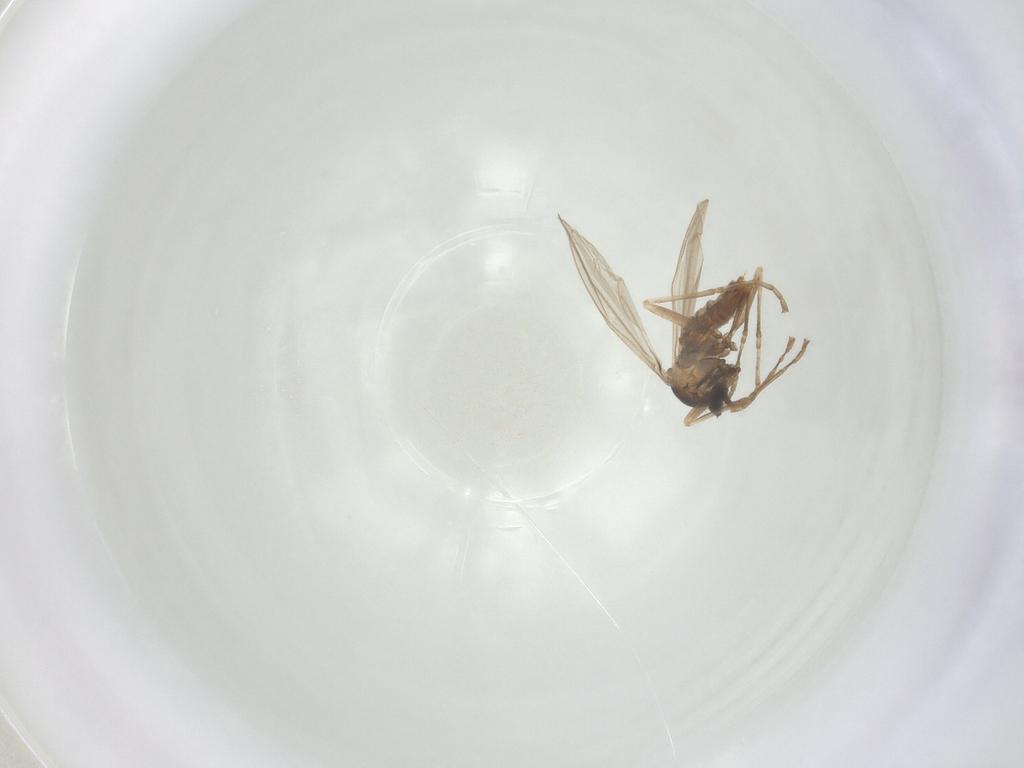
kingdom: Animalia
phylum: Arthropoda
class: Insecta
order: Diptera
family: Cecidomyiidae
